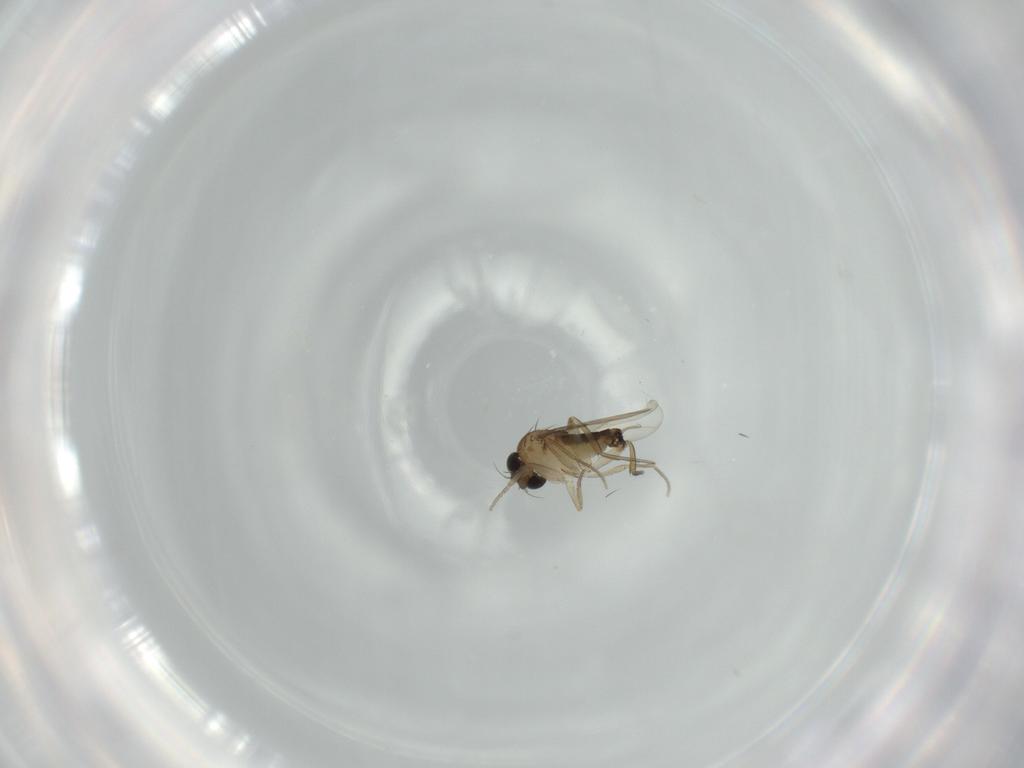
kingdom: Animalia
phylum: Arthropoda
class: Insecta
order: Diptera
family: Phoridae
